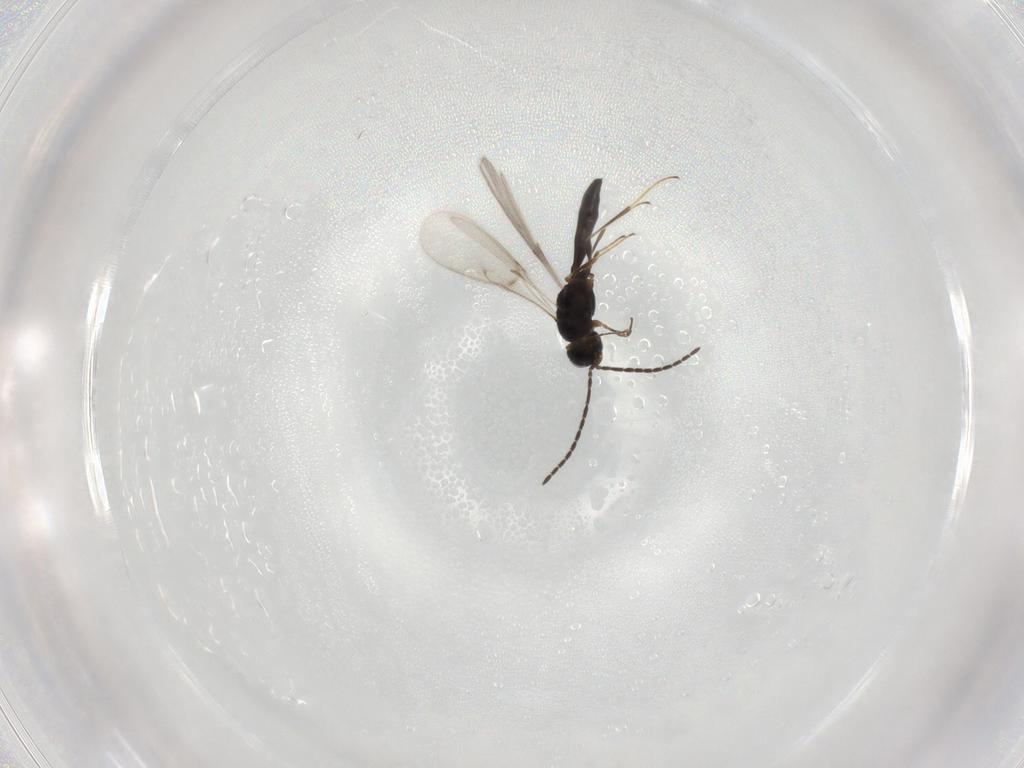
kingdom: Animalia
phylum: Arthropoda
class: Insecta
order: Hymenoptera
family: Scelionidae
